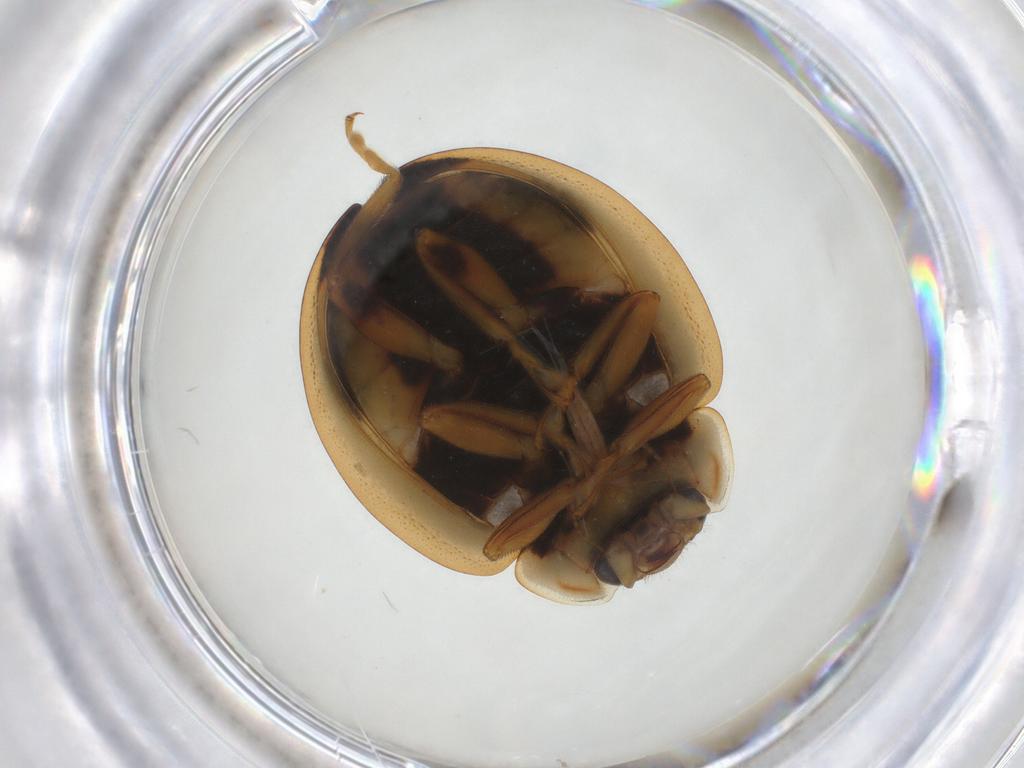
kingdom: Animalia
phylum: Arthropoda
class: Insecta
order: Coleoptera
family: Coccinellidae
